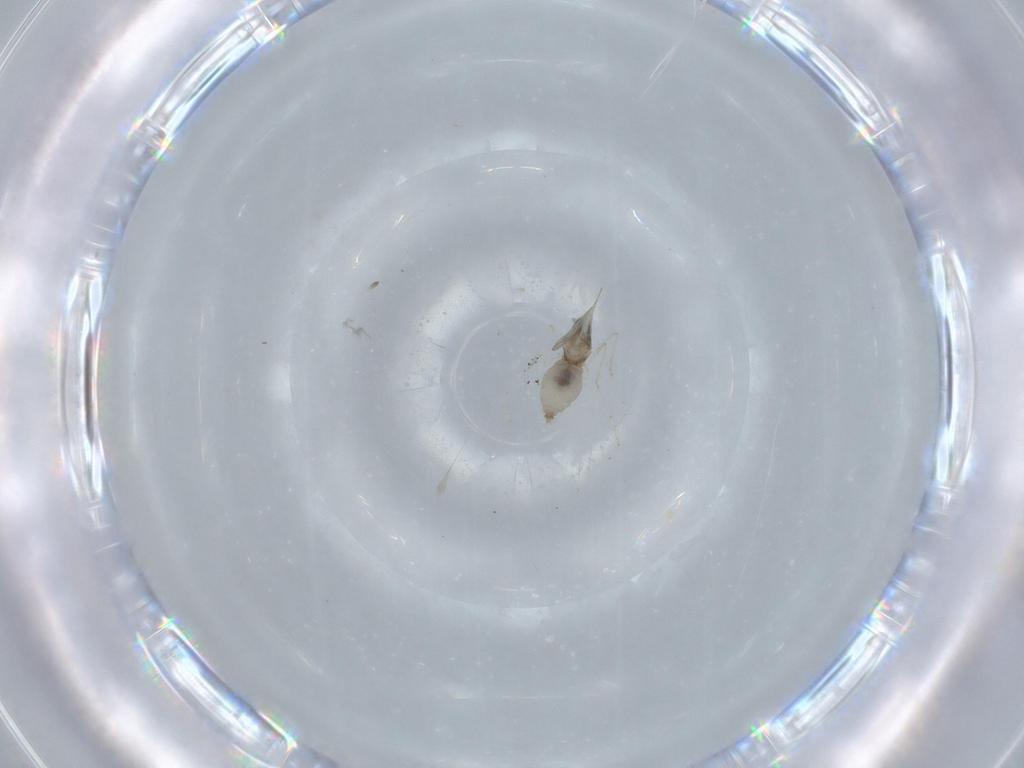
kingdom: Animalia
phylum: Arthropoda
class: Insecta
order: Diptera
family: Cecidomyiidae
